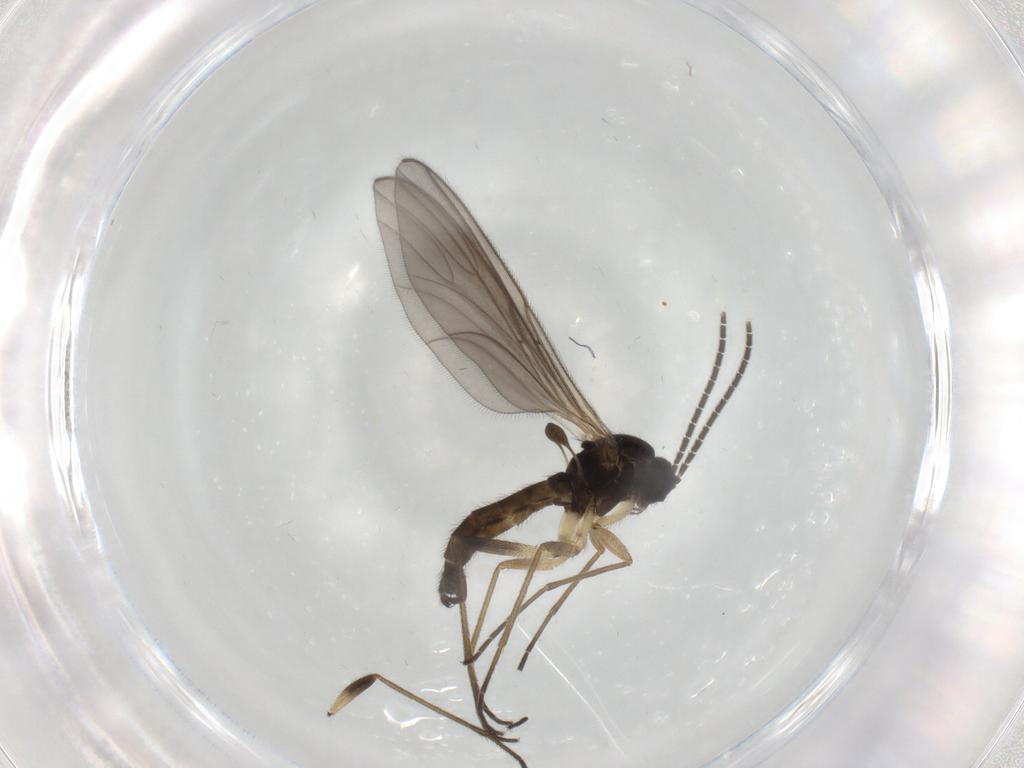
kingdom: Animalia
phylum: Arthropoda
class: Insecta
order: Diptera
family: Sciaridae
